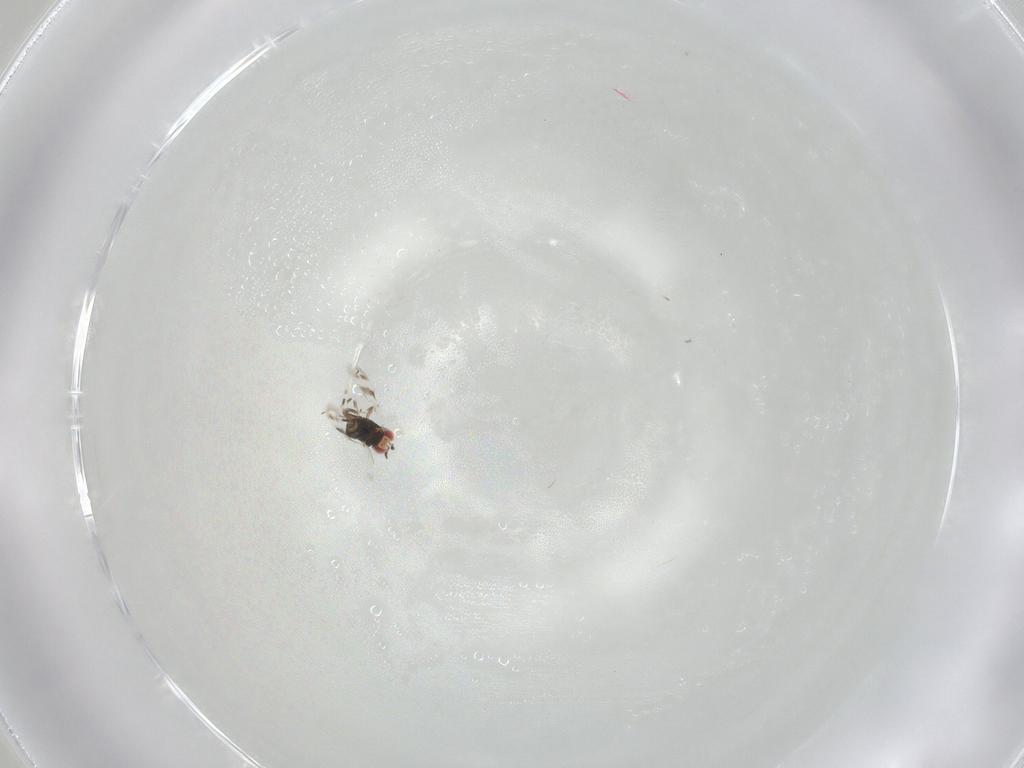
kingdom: Animalia
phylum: Arthropoda
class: Insecta
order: Hymenoptera
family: Azotidae
